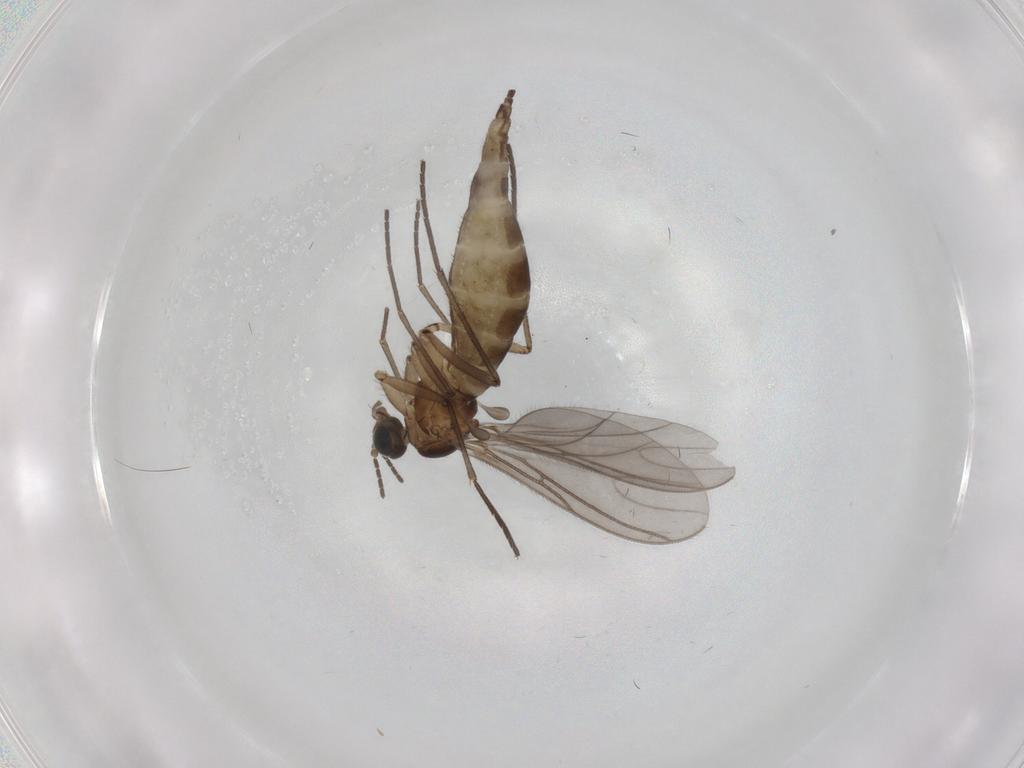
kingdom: Animalia
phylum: Arthropoda
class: Insecta
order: Diptera
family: Sciaridae
